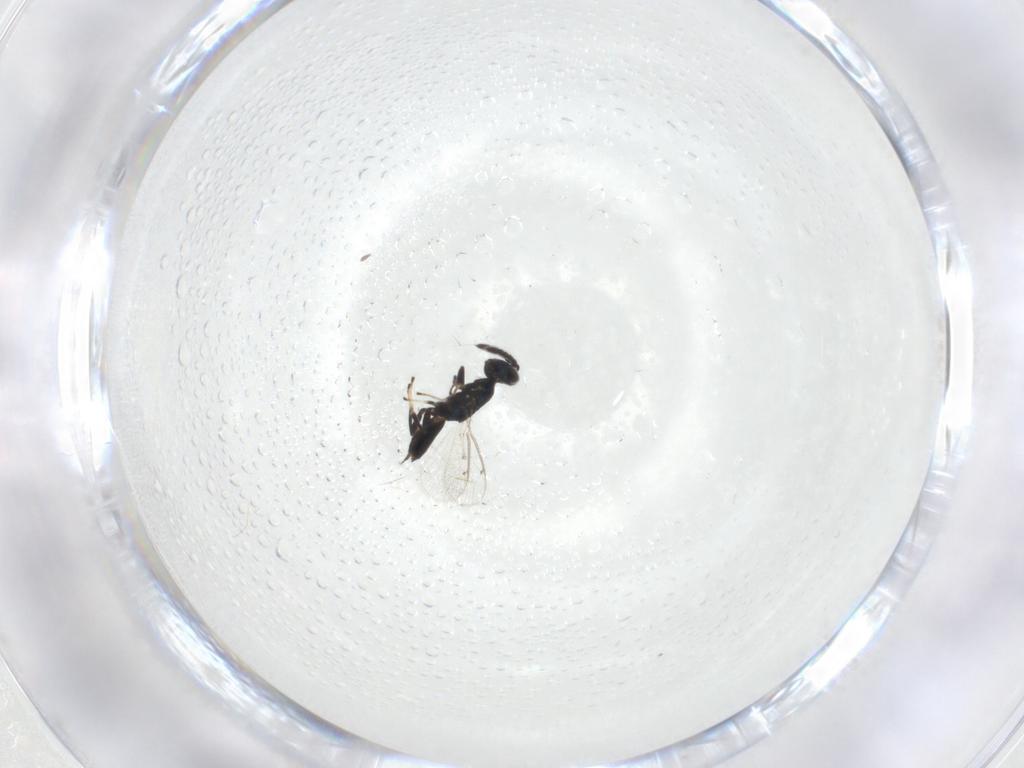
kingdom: Animalia
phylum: Arthropoda
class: Insecta
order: Hymenoptera
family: Eulophidae
